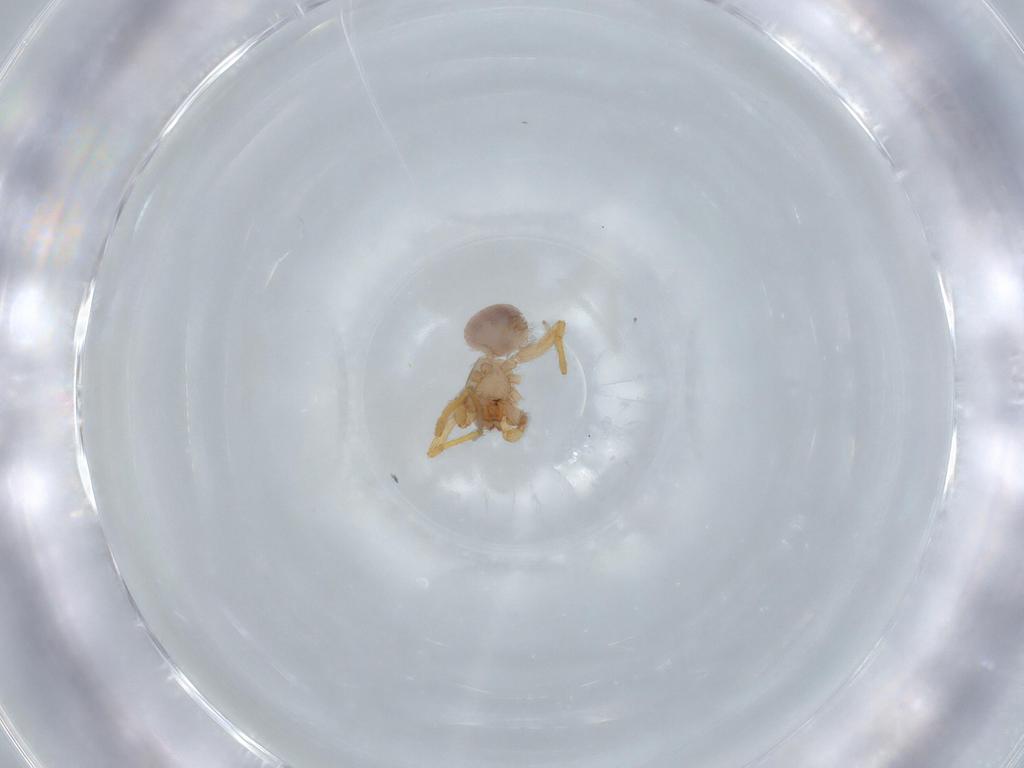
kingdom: Animalia
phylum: Arthropoda
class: Arachnida
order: Araneae
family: Oonopidae
